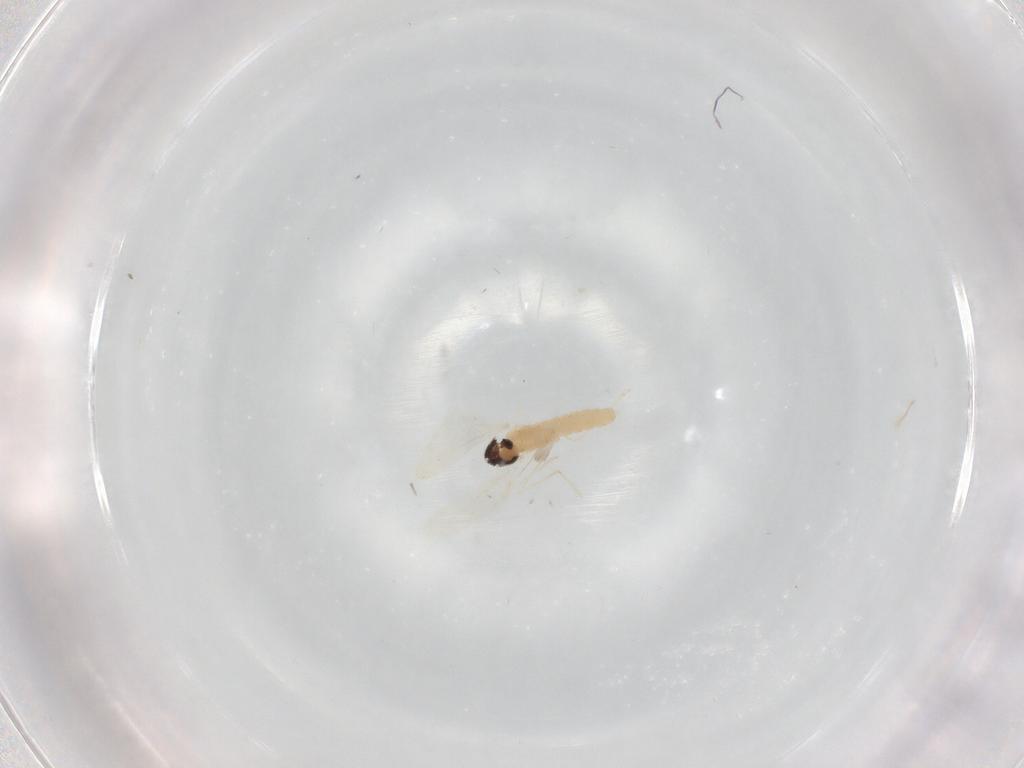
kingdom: Animalia
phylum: Arthropoda
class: Insecta
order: Diptera
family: Cecidomyiidae
